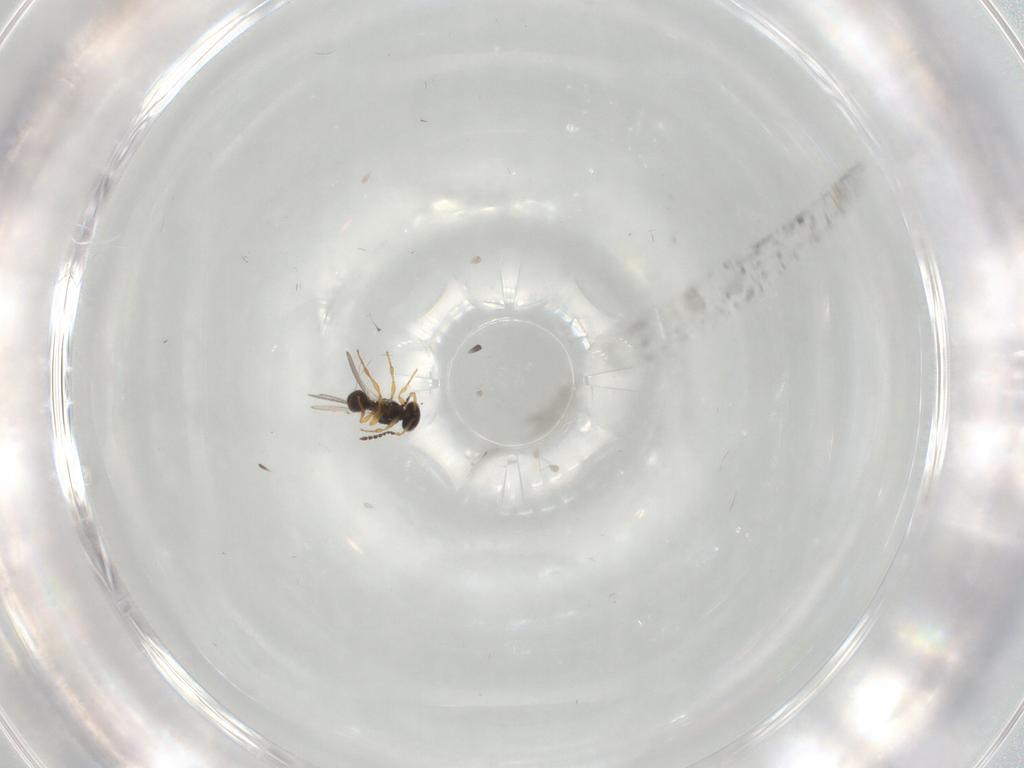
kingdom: Animalia
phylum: Arthropoda
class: Insecta
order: Hymenoptera
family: Platygastridae
